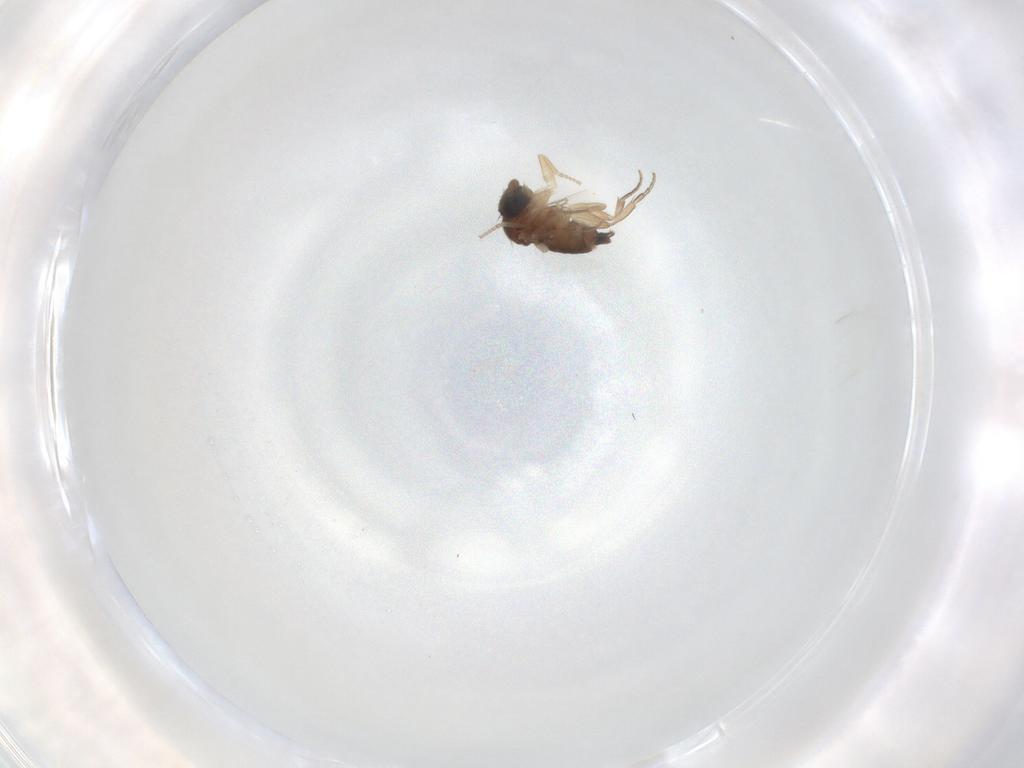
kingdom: Animalia
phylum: Arthropoda
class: Insecta
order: Diptera
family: Phoridae
